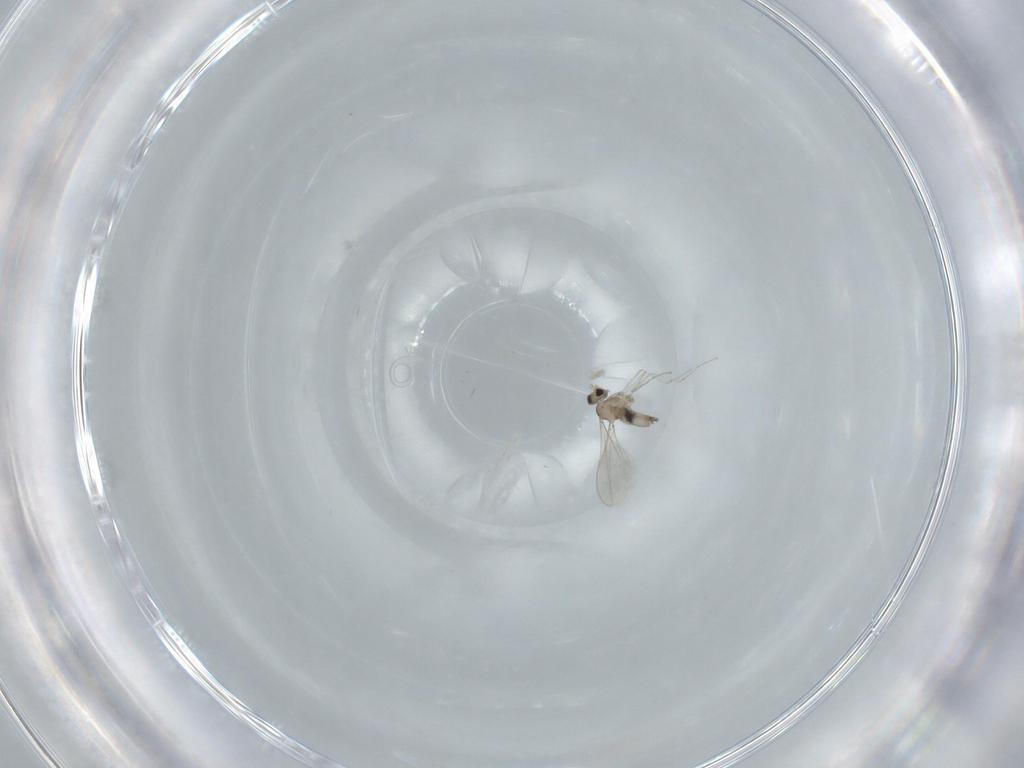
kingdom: Animalia
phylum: Arthropoda
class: Insecta
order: Diptera
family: Cecidomyiidae
